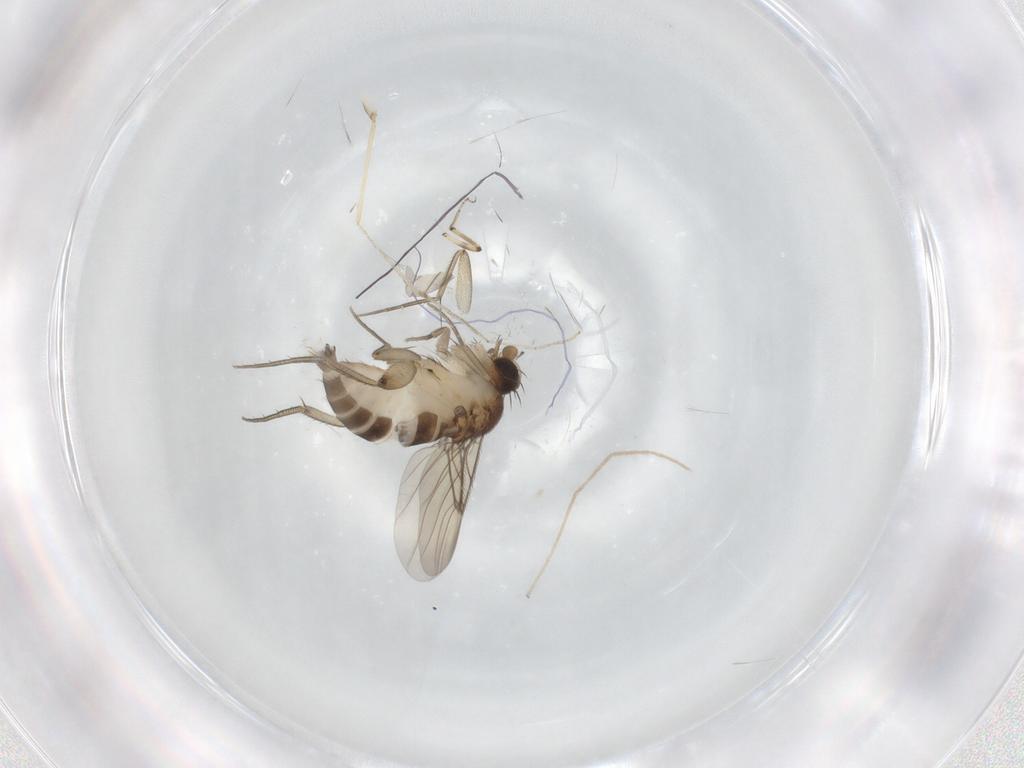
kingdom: Animalia
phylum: Arthropoda
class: Insecta
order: Diptera
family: Phoridae
